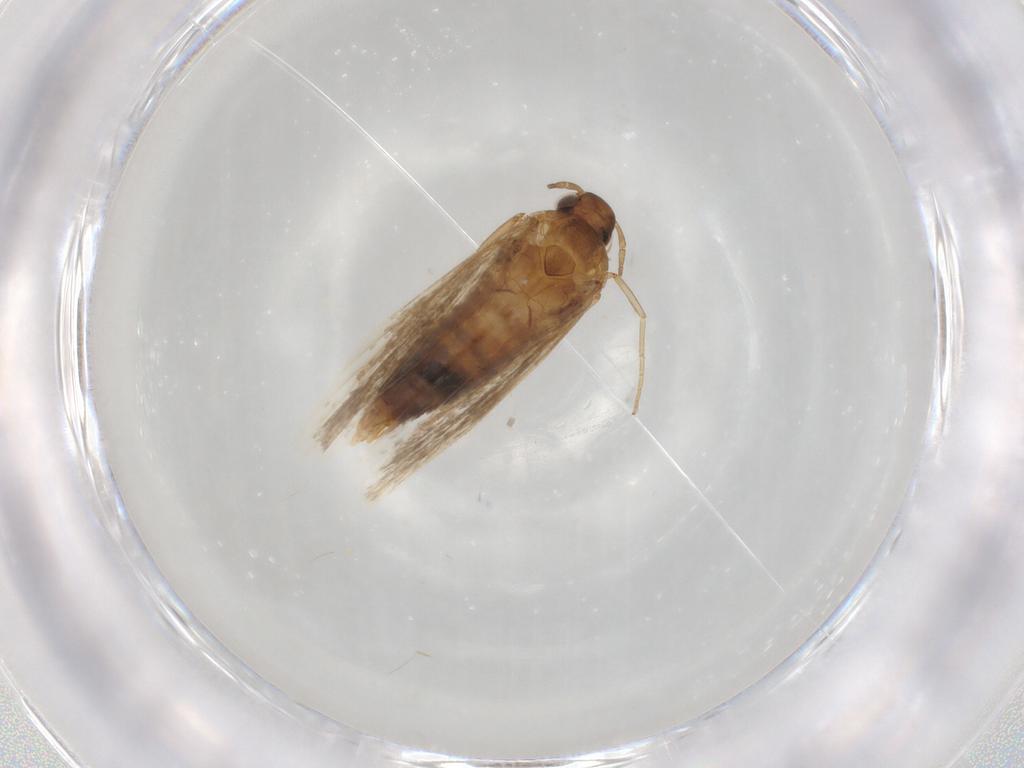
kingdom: Animalia
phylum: Arthropoda
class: Insecta
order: Lepidoptera
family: Gelechiidae
